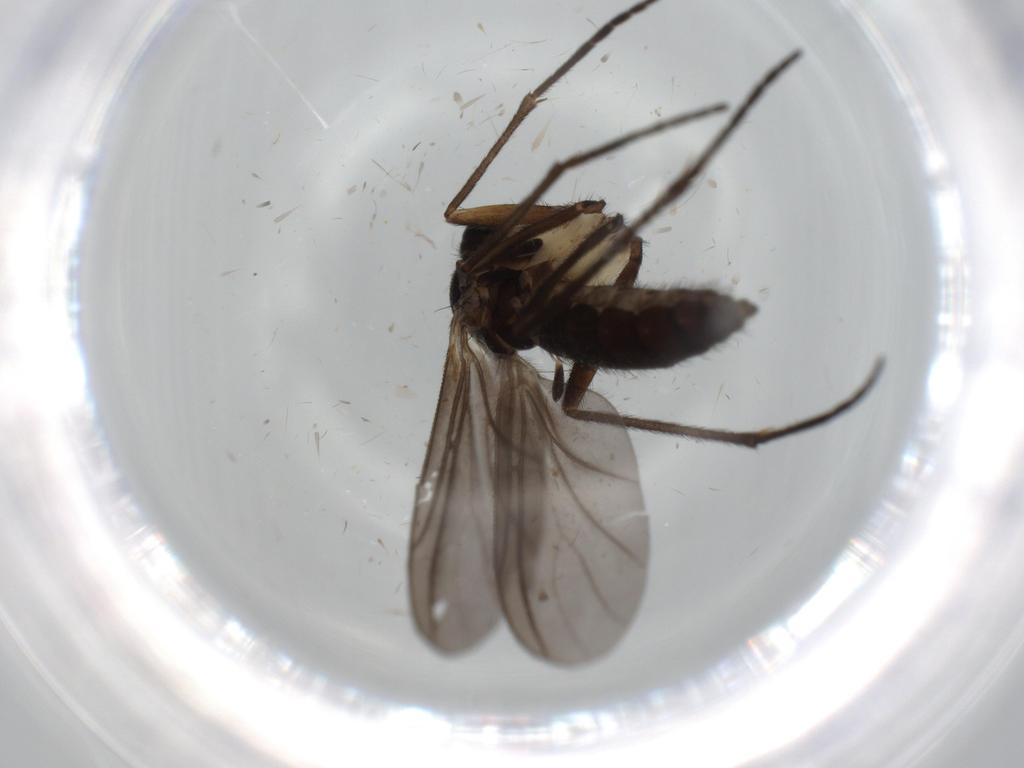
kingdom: Animalia
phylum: Arthropoda
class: Insecta
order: Diptera
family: Sciaridae
